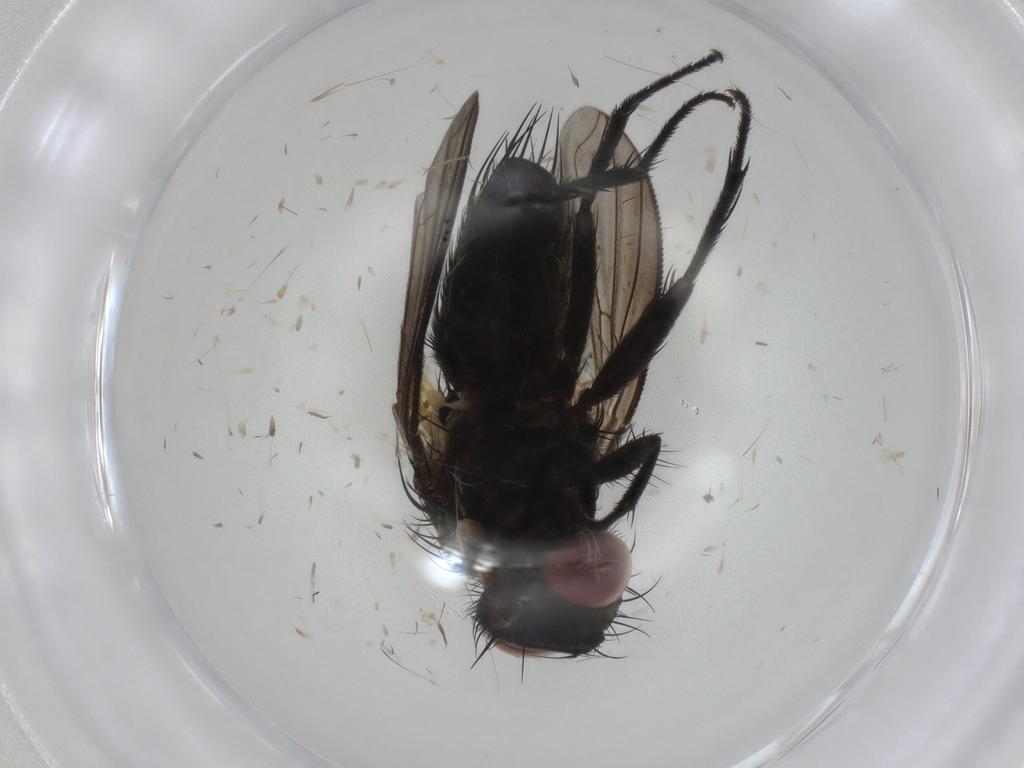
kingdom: Animalia
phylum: Arthropoda
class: Insecta
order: Diptera
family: Tachinidae
